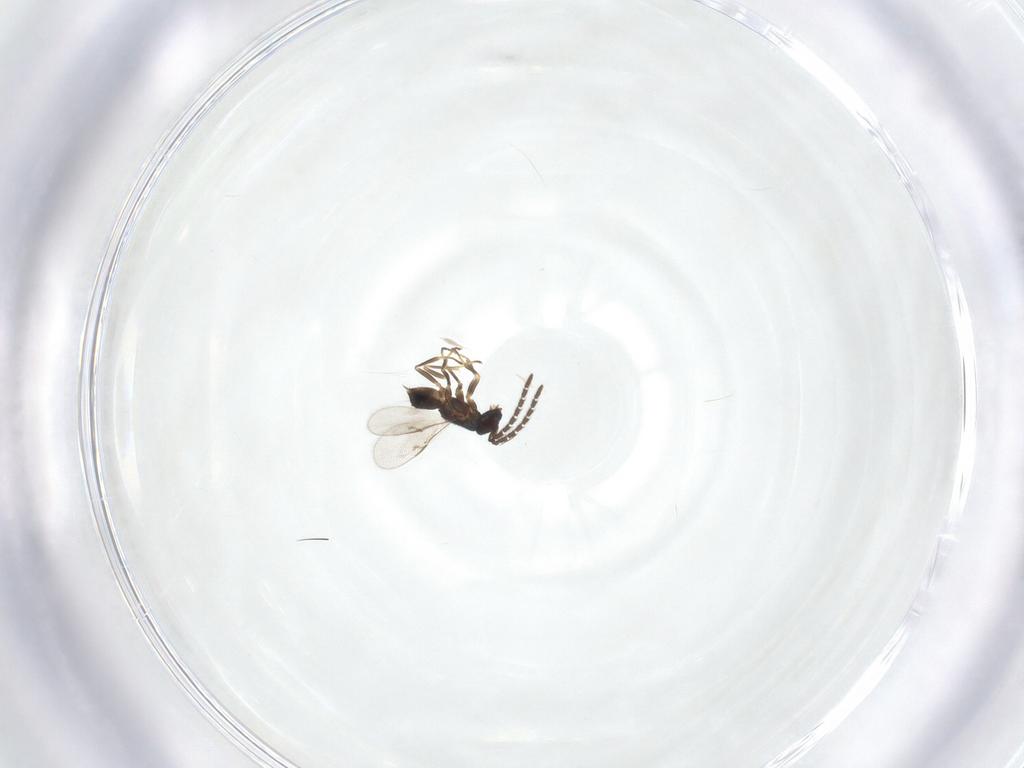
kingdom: Animalia
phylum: Arthropoda
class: Insecta
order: Hymenoptera
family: Encyrtidae
